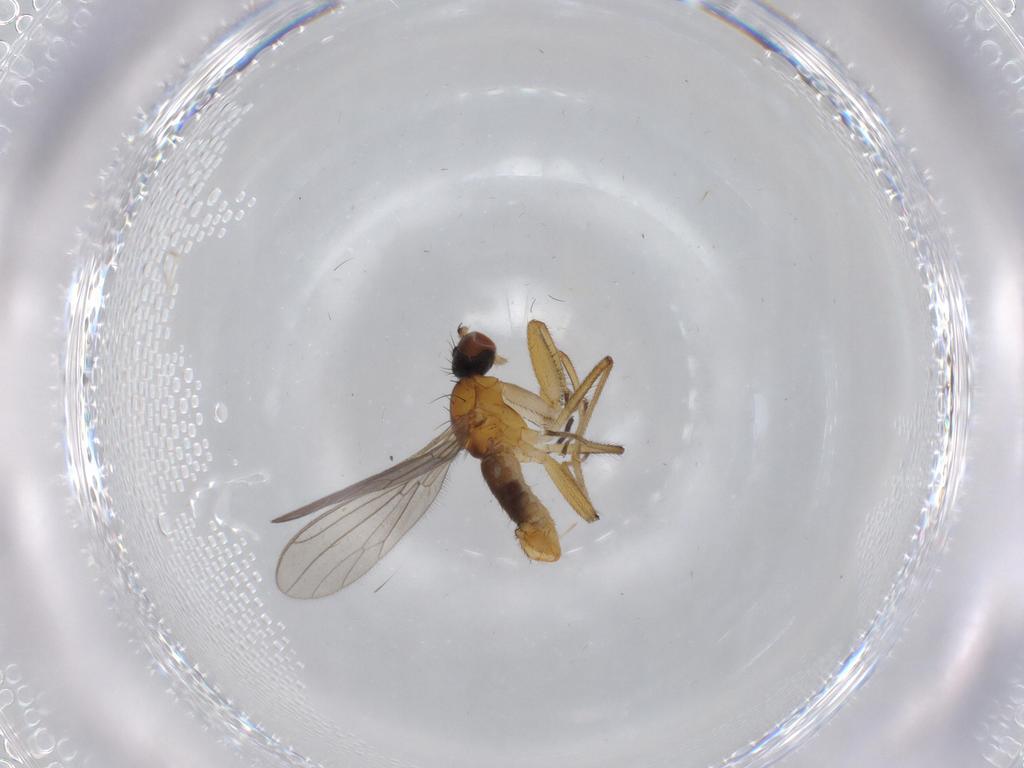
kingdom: Animalia
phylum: Arthropoda
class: Insecta
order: Diptera
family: Empididae
